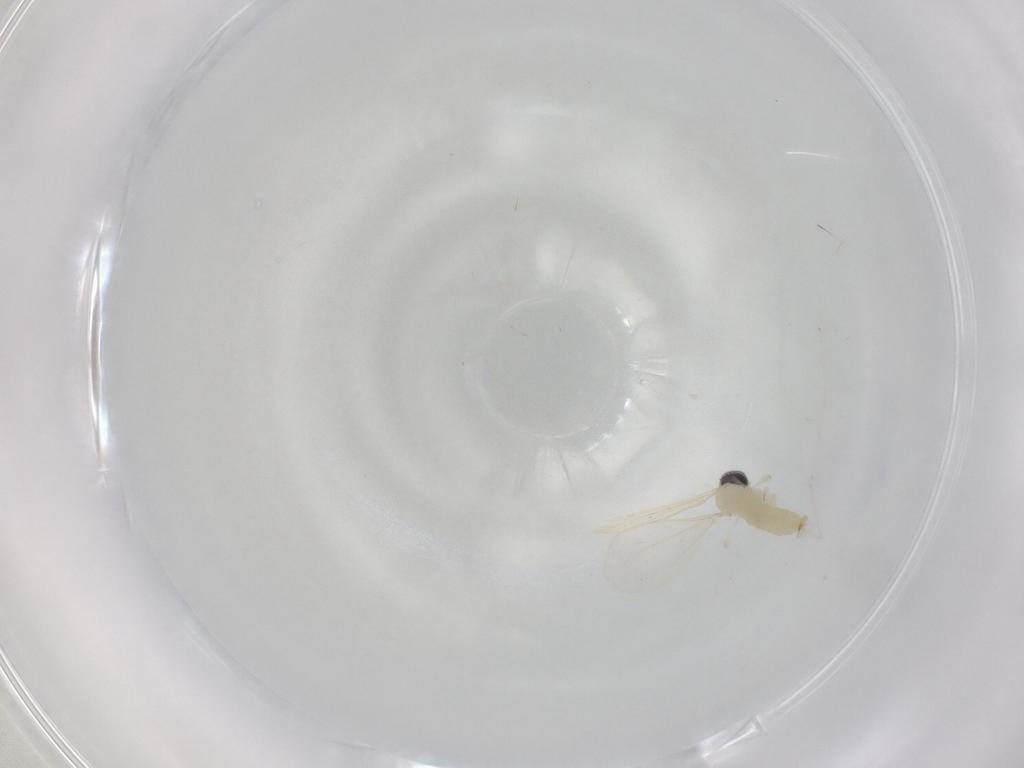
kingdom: Animalia
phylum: Arthropoda
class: Insecta
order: Diptera
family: Cecidomyiidae
